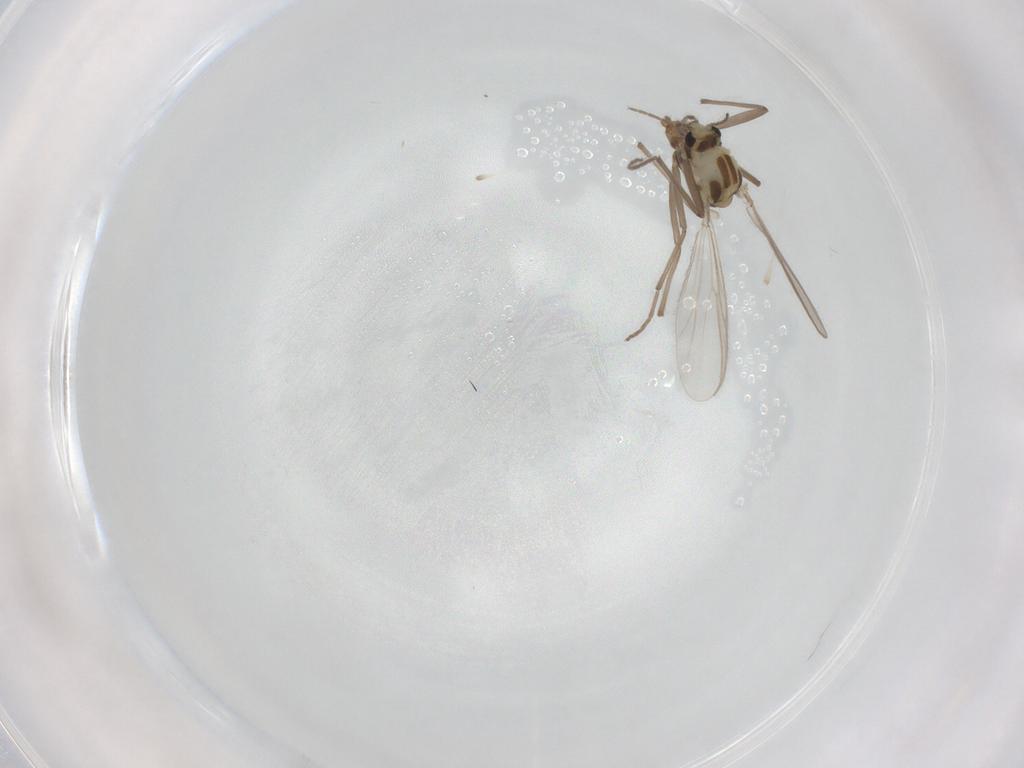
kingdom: Animalia
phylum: Arthropoda
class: Insecta
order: Diptera
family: Chironomidae
